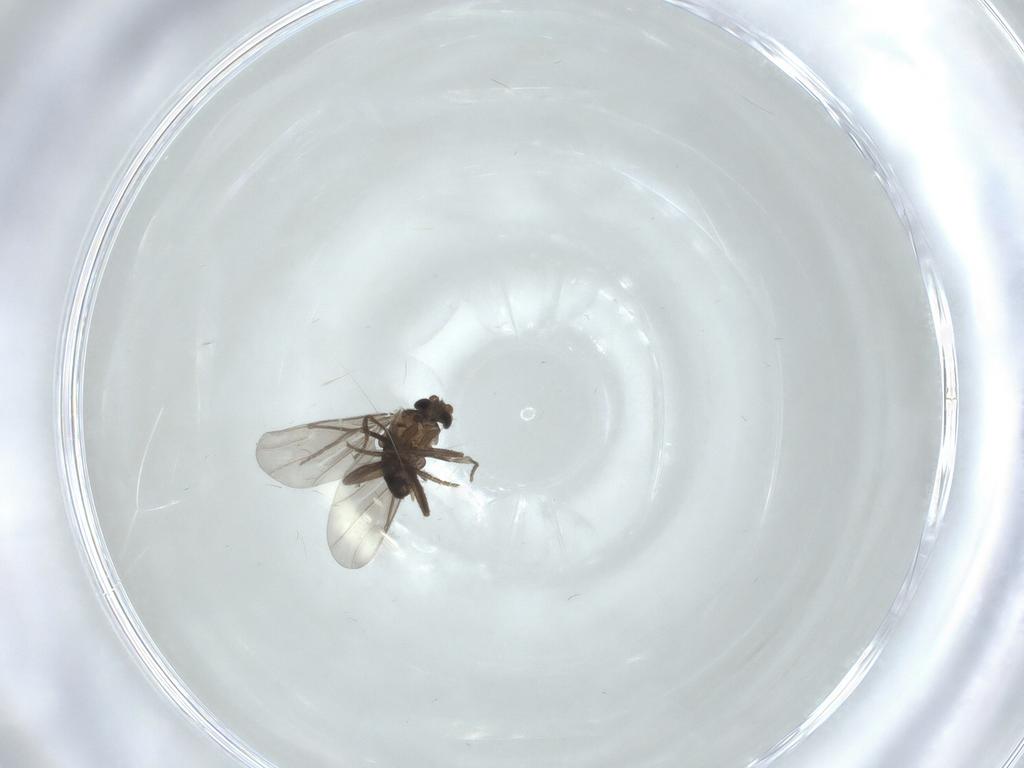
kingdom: Animalia
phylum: Arthropoda
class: Insecta
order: Diptera
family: Phoridae
